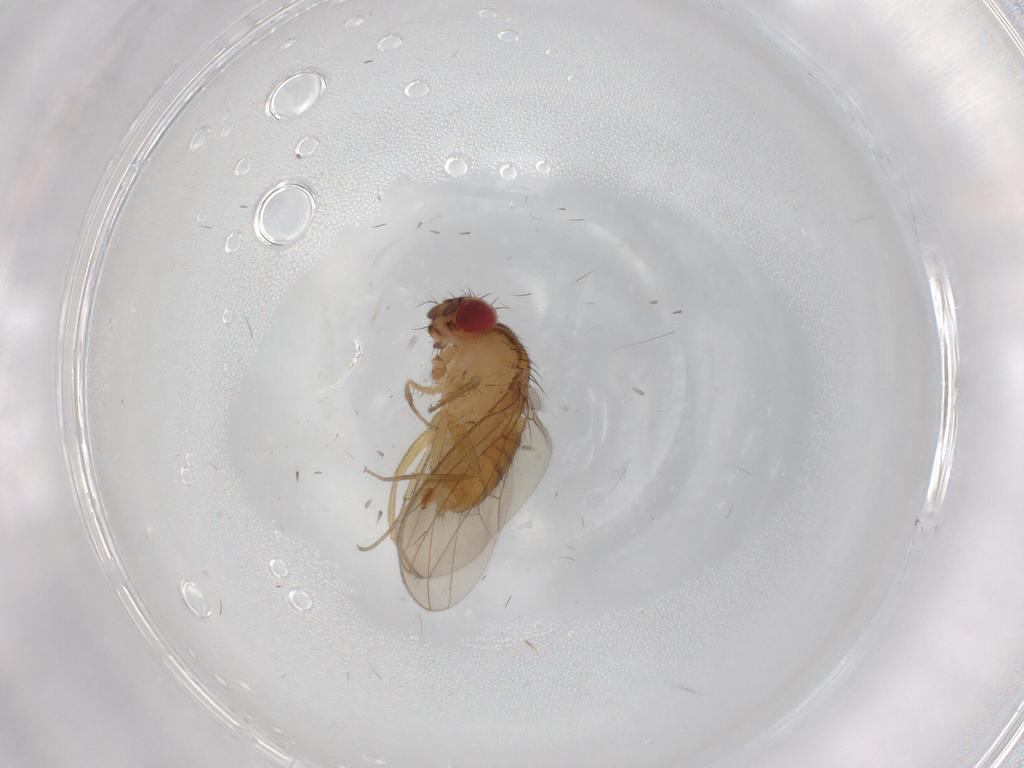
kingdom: Animalia
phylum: Arthropoda
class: Insecta
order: Diptera
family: Drosophilidae
